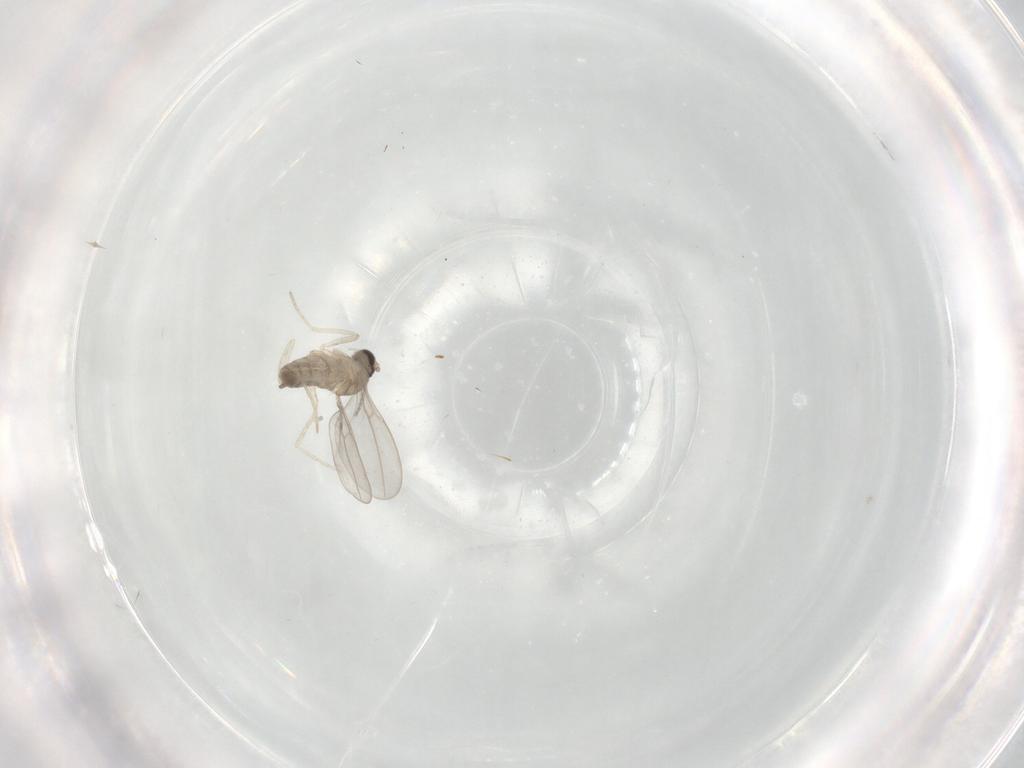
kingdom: Animalia
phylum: Arthropoda
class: Insecta
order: Diptera
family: Cecidomyiidae
